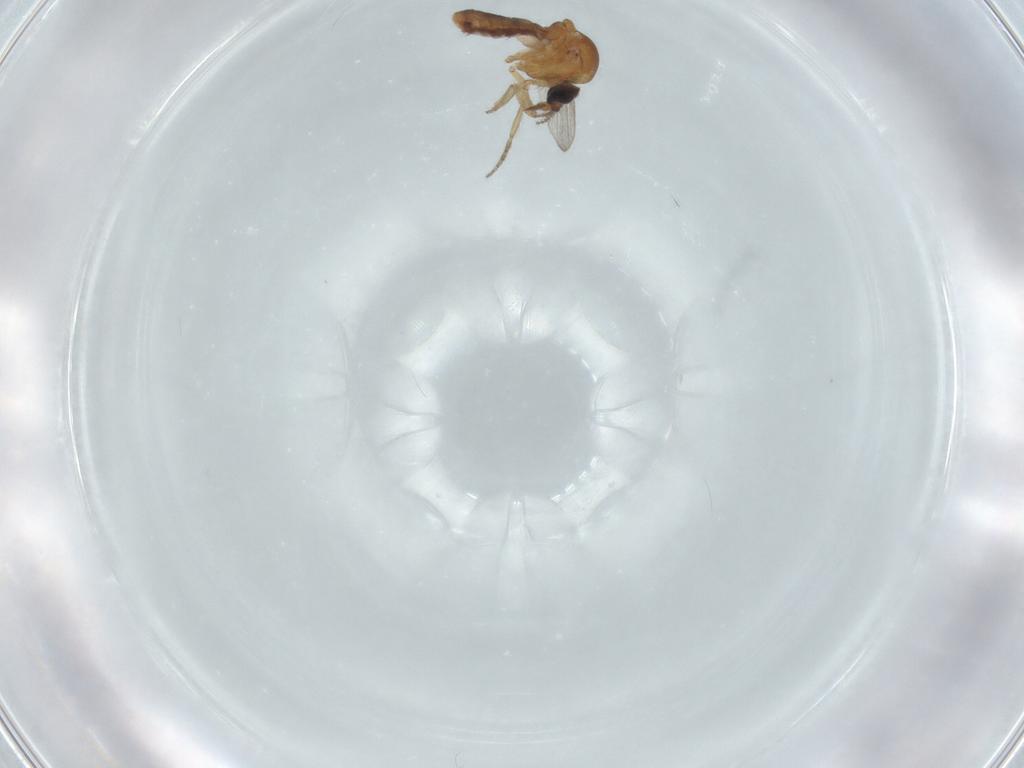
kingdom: Animalia
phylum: Arthropoda
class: Insecta
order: Diptera
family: Ceratopogonidae
